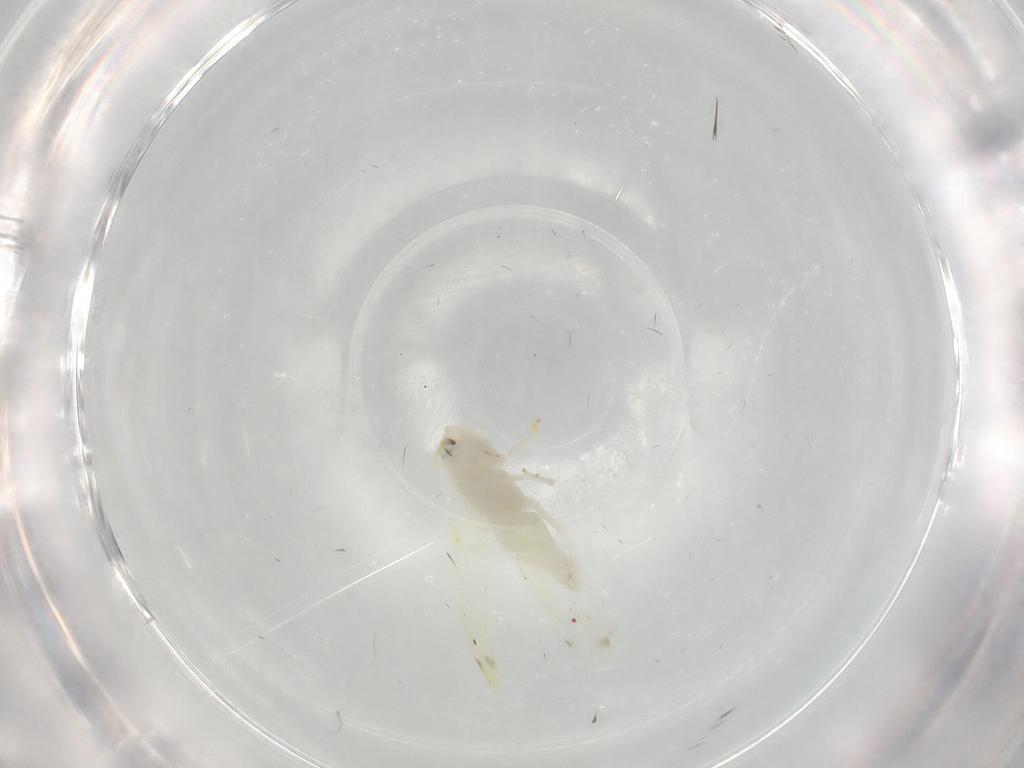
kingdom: Animalia
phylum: Arthropoda
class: Insecta
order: Hemiptera
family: Cicadellidae
